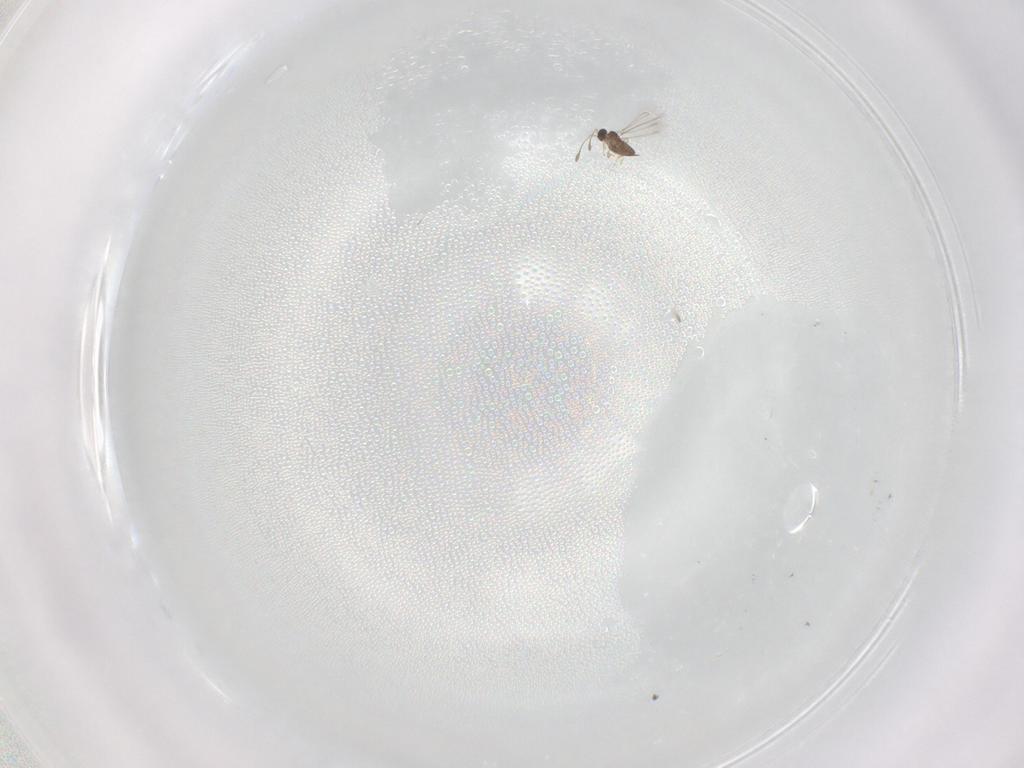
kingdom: Animalia
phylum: Arthropoda
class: Insecta
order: Hymenoptera
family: Mymaridae
